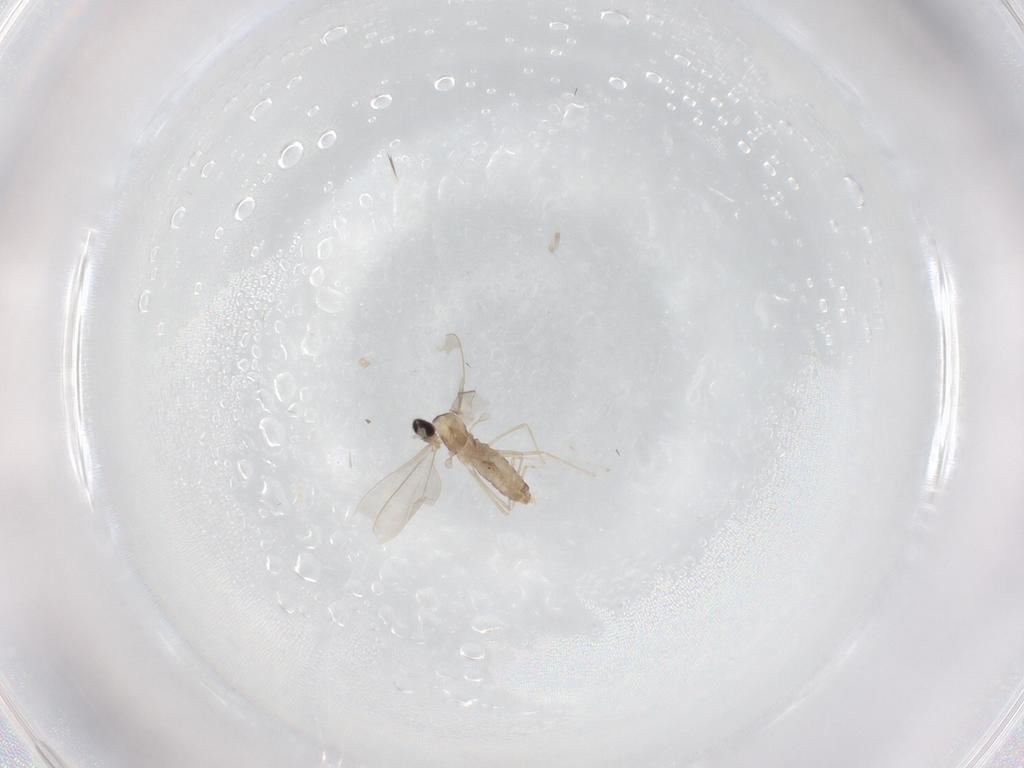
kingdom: Animalia
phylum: Arthropoda
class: Insecta
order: Diptera
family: Cecidomyiidae
